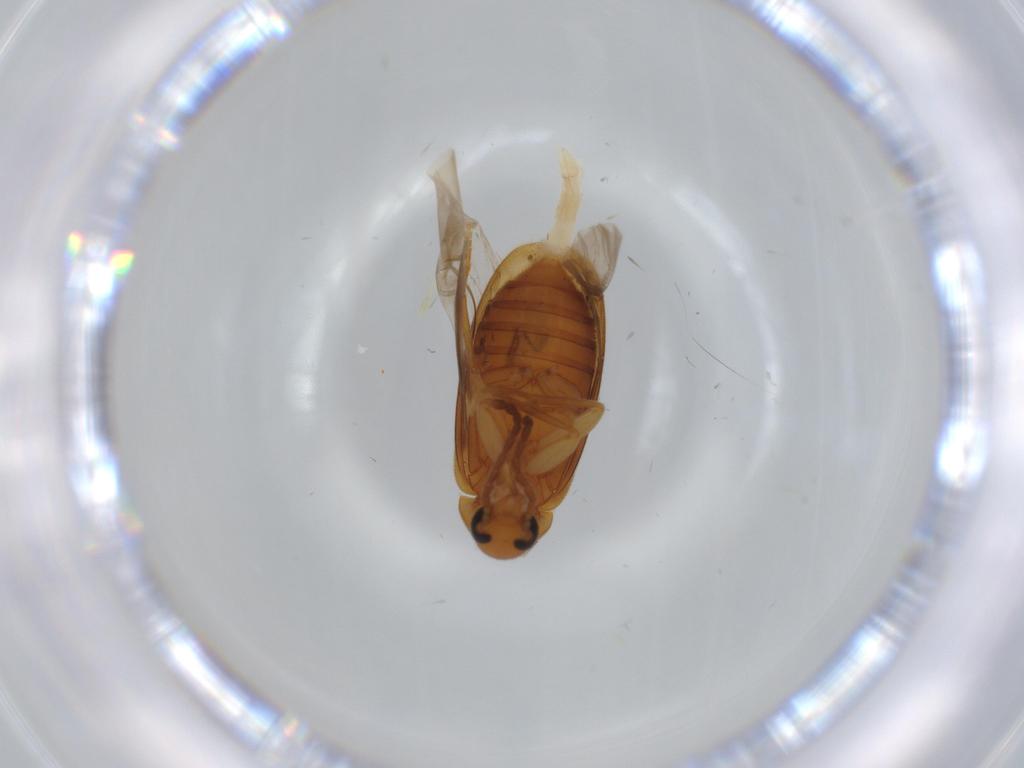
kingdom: Animalia
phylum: Arthropoda
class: Insecta
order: Coleoptera
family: Scraptiidae
